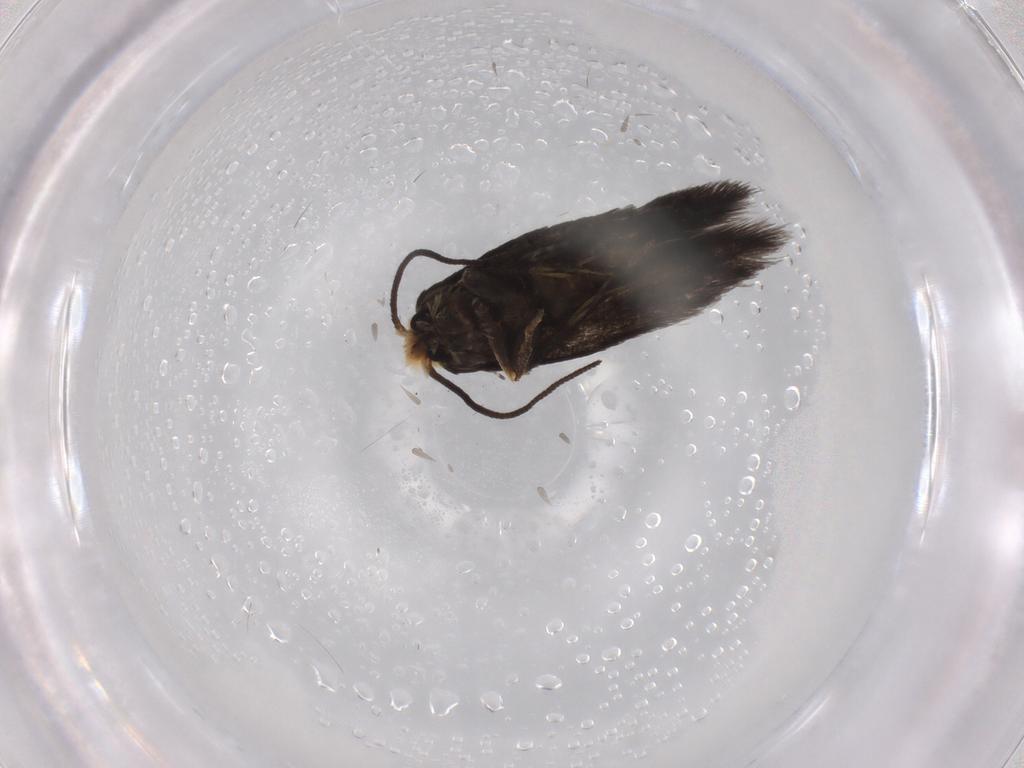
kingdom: Animalia
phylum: Arthropoda
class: Insecta
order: Lepidoptera
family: Nepticulidae
